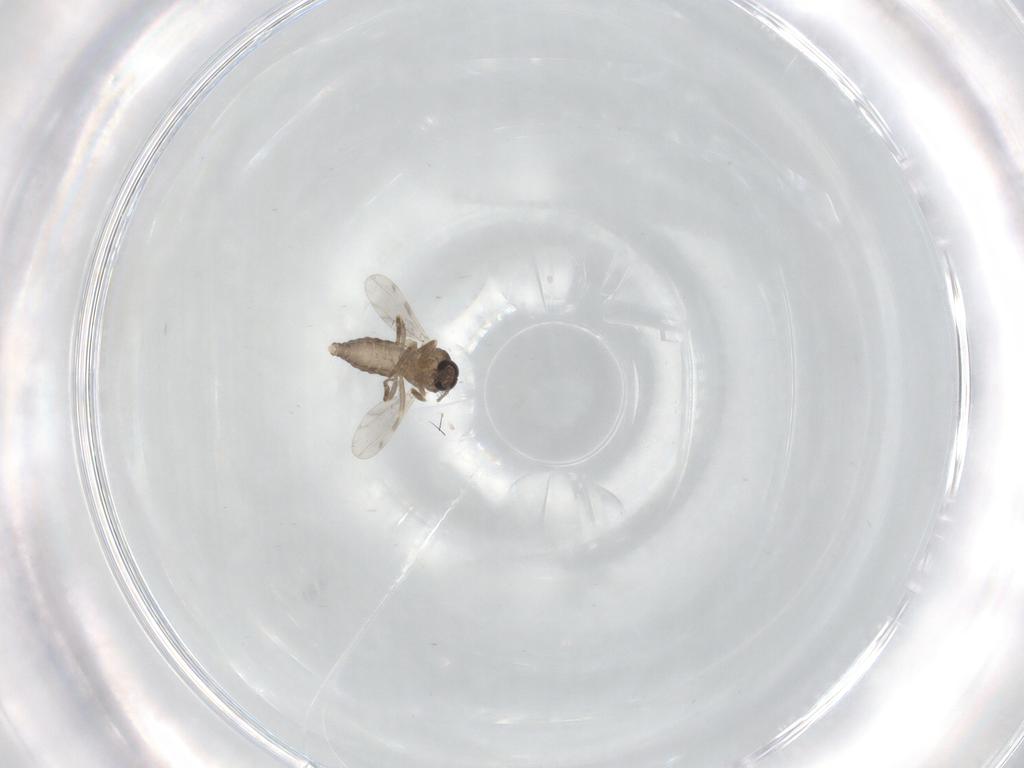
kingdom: Animalia
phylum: Arthropoda
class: Insecta
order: Diptera
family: Ceratopogonidae
